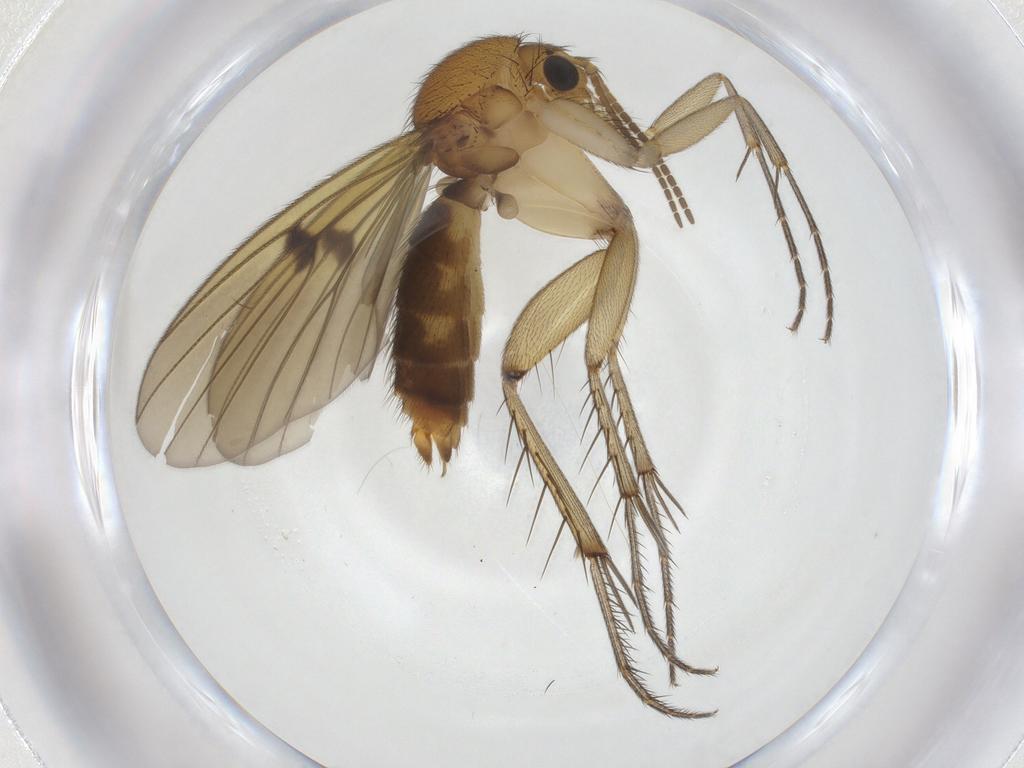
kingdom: Animalia
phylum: Arthropoda
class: Insecta
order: Diptera
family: Mycetophilidae
